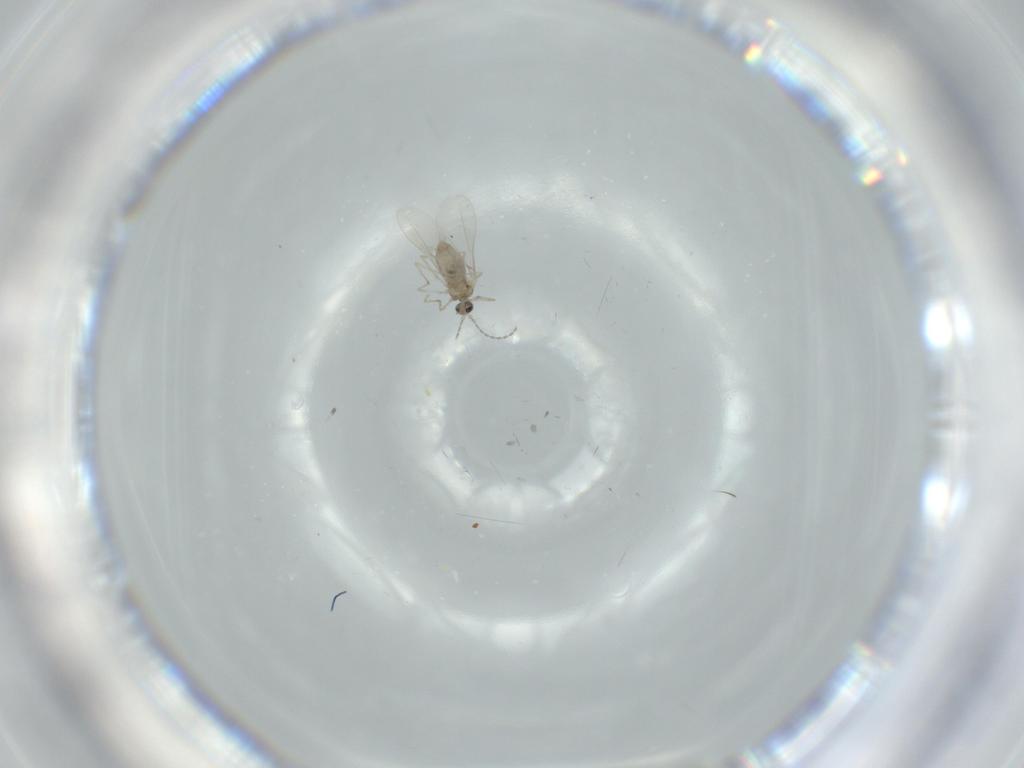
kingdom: Animalia
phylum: Arthropoda
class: Insecta
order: Diptera
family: Cecidomyiidae
